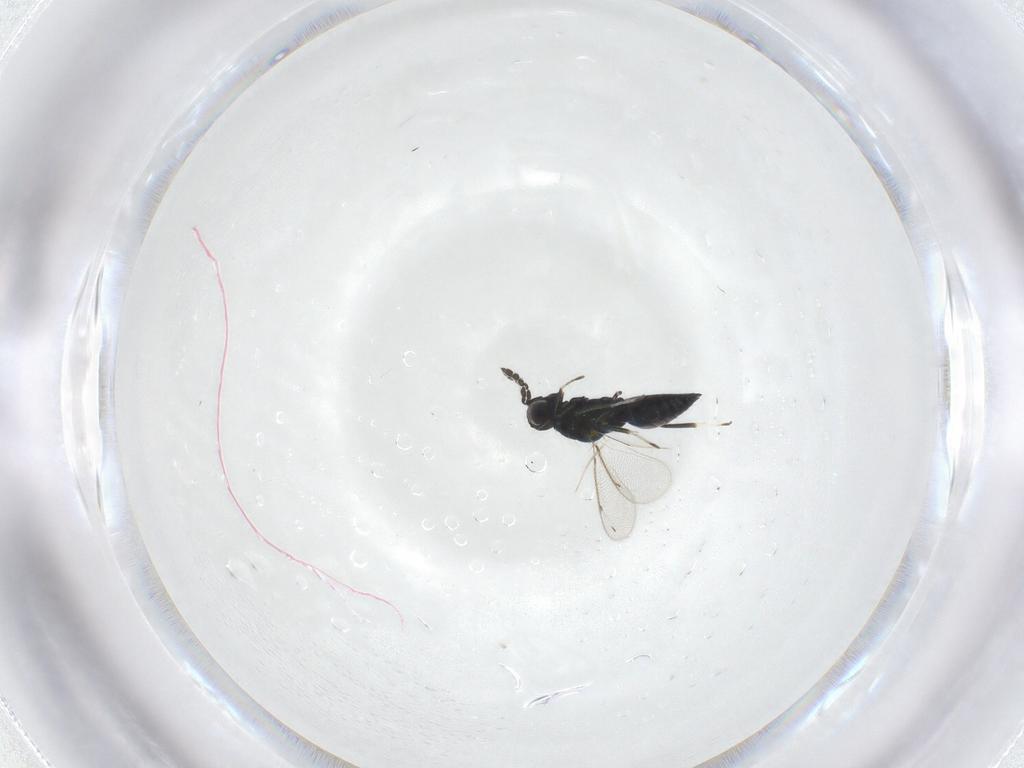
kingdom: Animalia
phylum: Arthropoda
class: Insecta
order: Hymenoptera
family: Eulophidae
